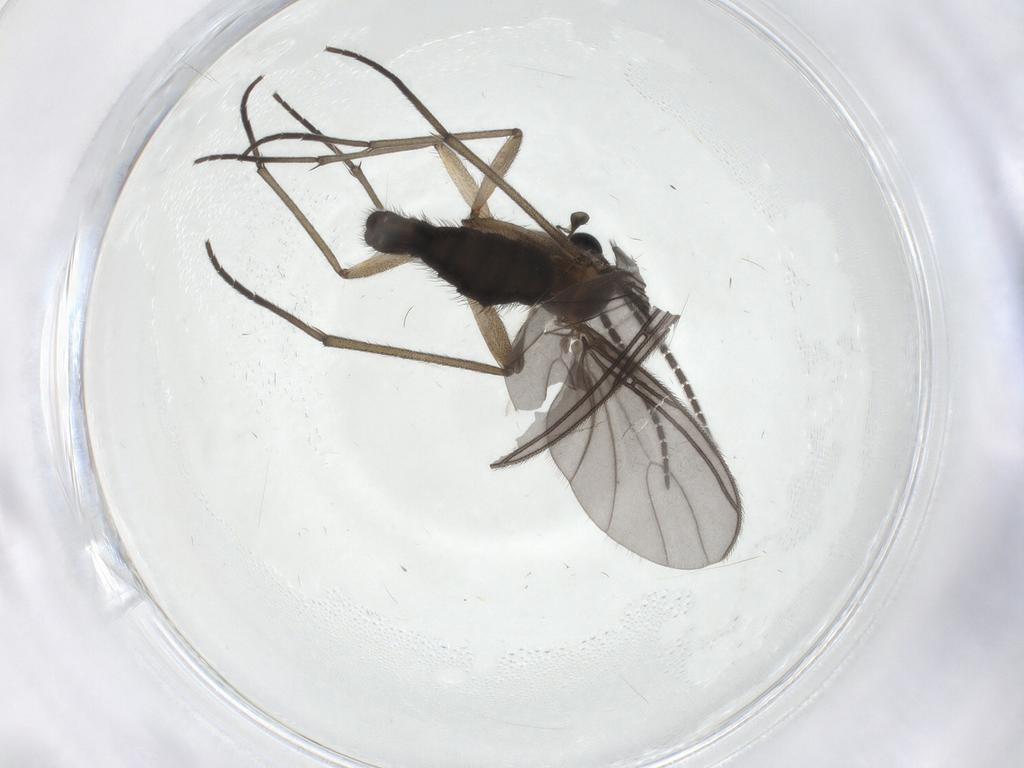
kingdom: Animalia
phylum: Arthropoda
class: Insecta
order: Diptera
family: Sciaridae
